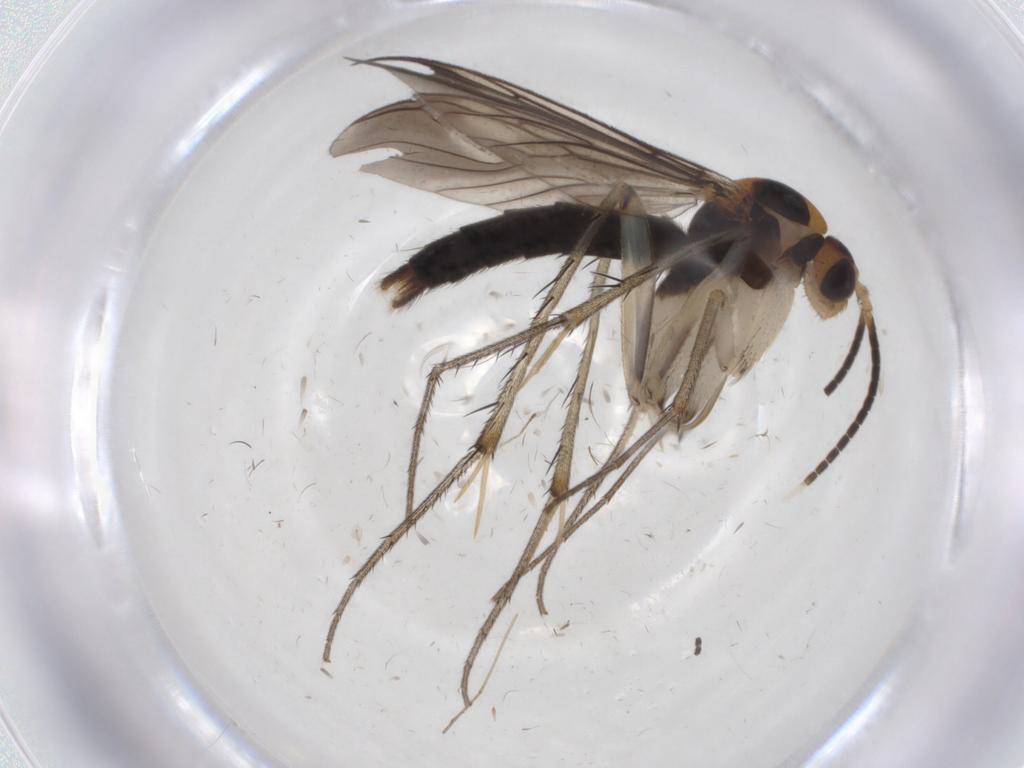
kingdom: Animalia
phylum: Arthropoda
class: Insecta
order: Diptera
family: Mycetophilidae
